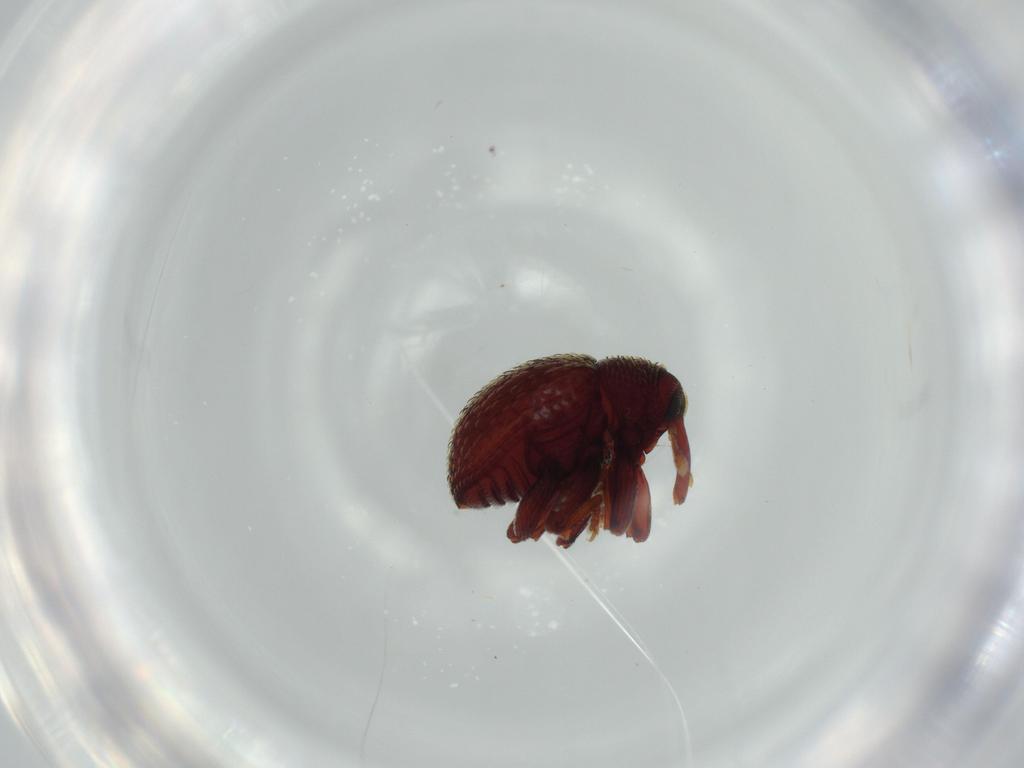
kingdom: Animalia
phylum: Arthropoda
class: Insecta
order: Coleoptera
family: Curculionidae
